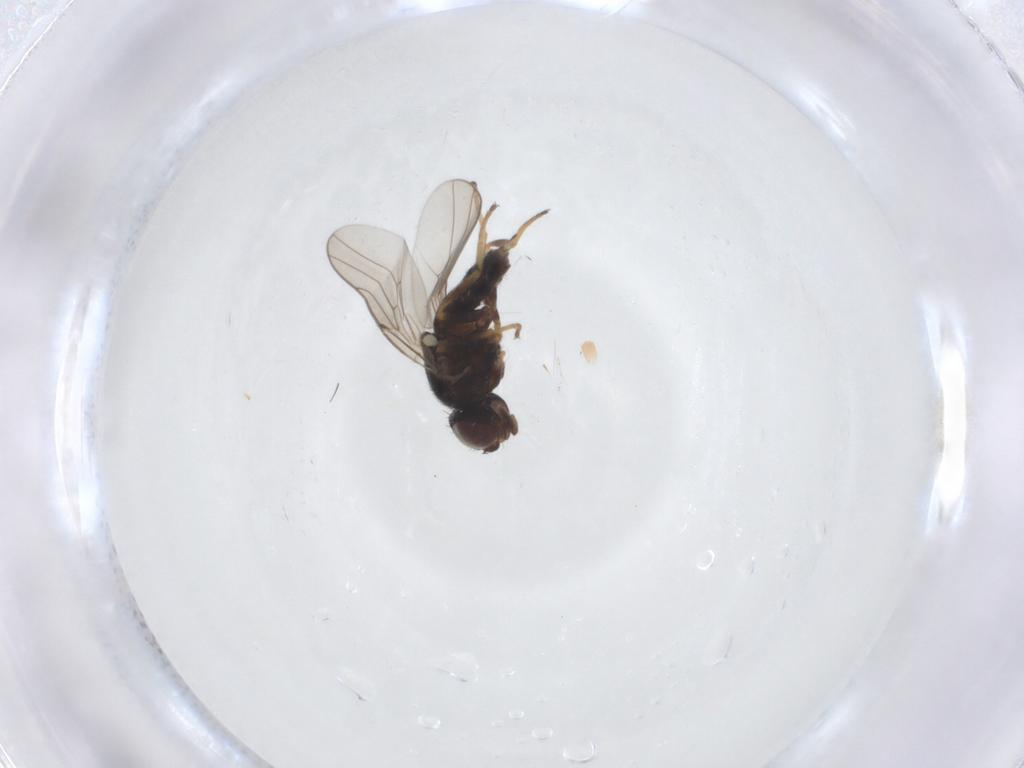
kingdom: Animalia
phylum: Arthropoda
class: Insecta
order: Diptera
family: Chloropidae
